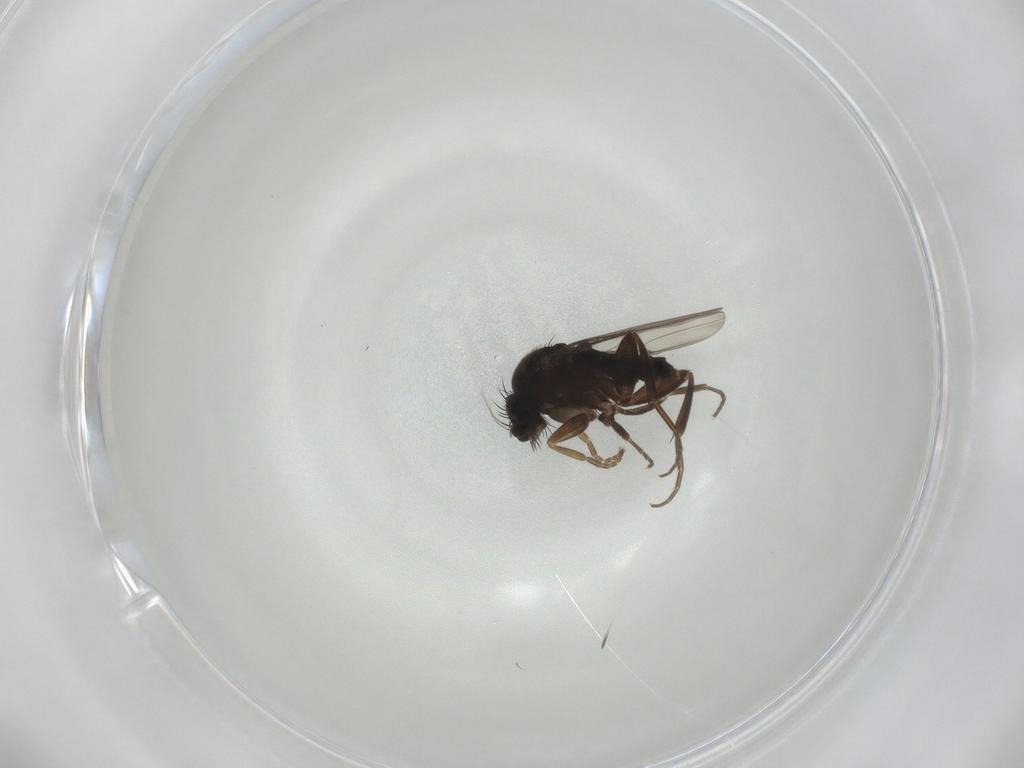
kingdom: Animalia
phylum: Arthropoda
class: Insecta
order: Diptera
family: Phoridae
